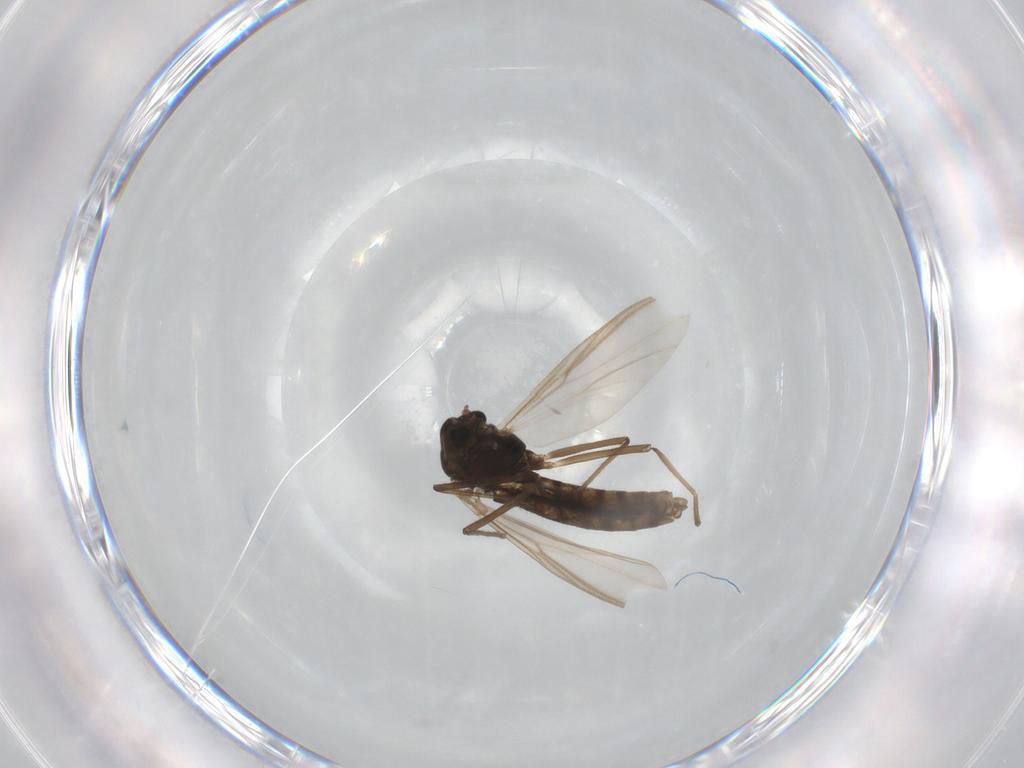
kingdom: Animalia
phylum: Arthropoda
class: Insecta
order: Diptera
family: Chironomidae
